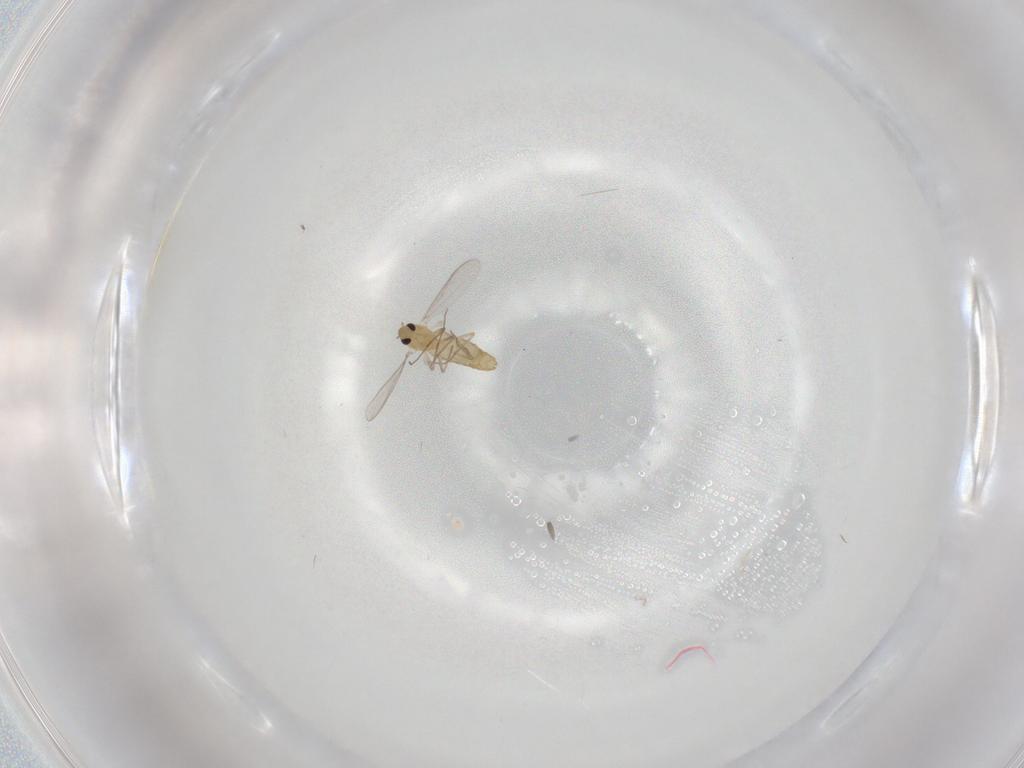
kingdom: Animalia
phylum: Arthropoda
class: Insecta
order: Diptera
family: Chironomidae
